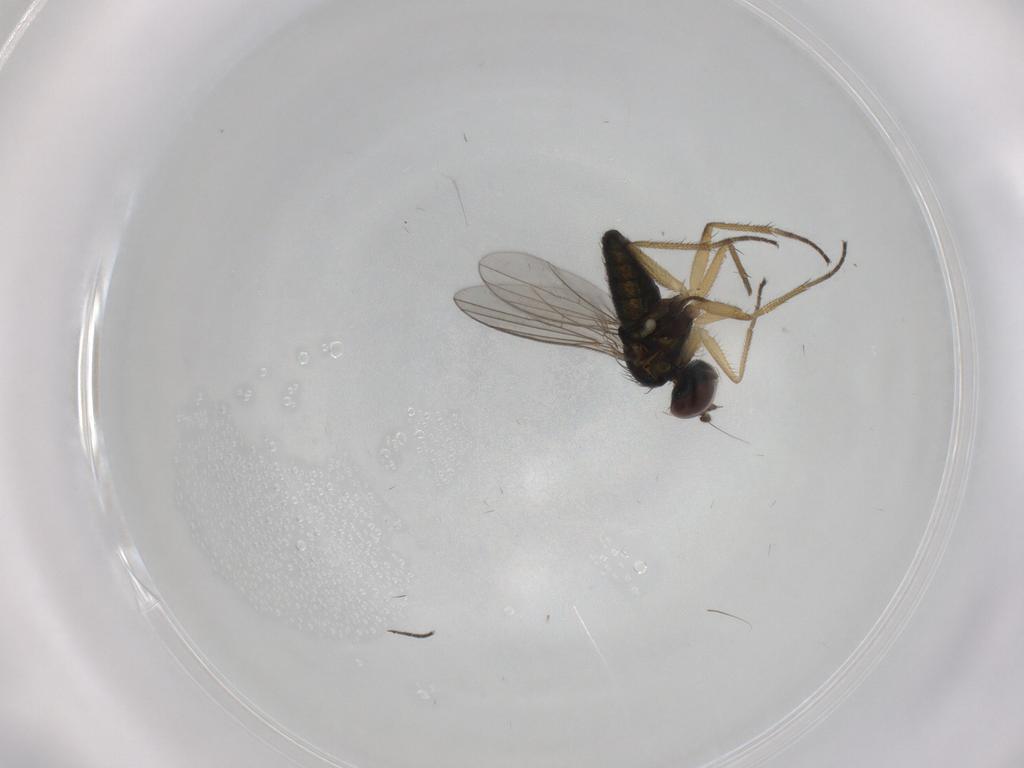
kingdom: Animalia
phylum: Arthropoda
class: Insecta
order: Diptera
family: Dolichopodidae
